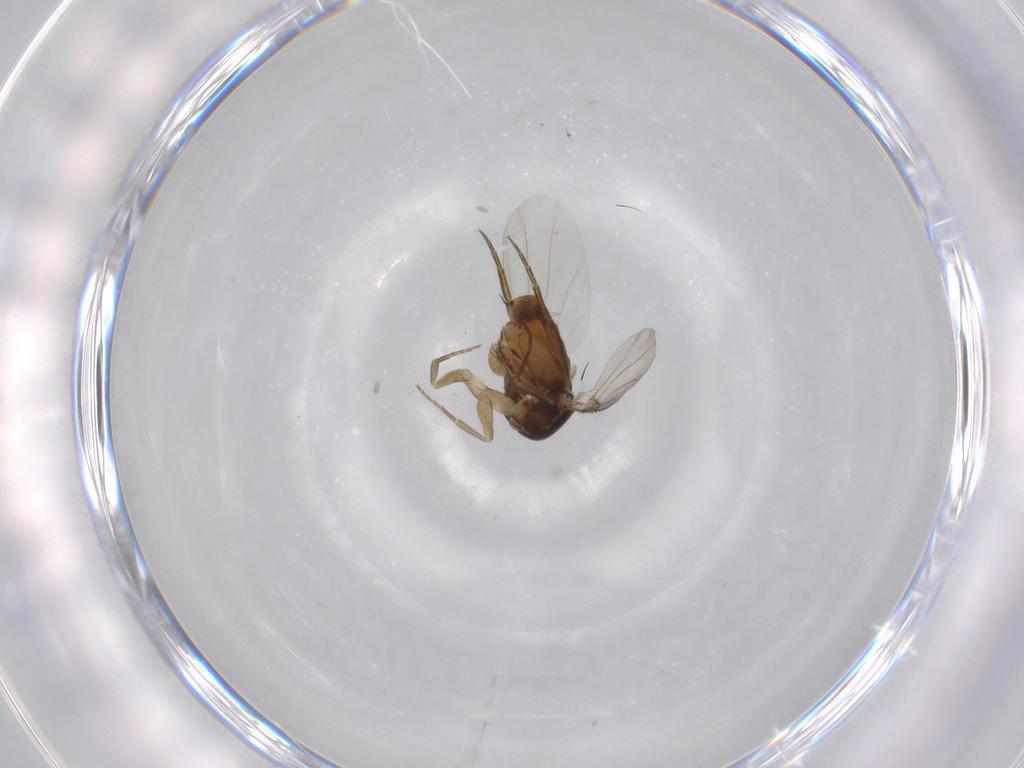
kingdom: Animalia
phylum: Arthropoda
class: Insecta
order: Diptera
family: Phoridae
